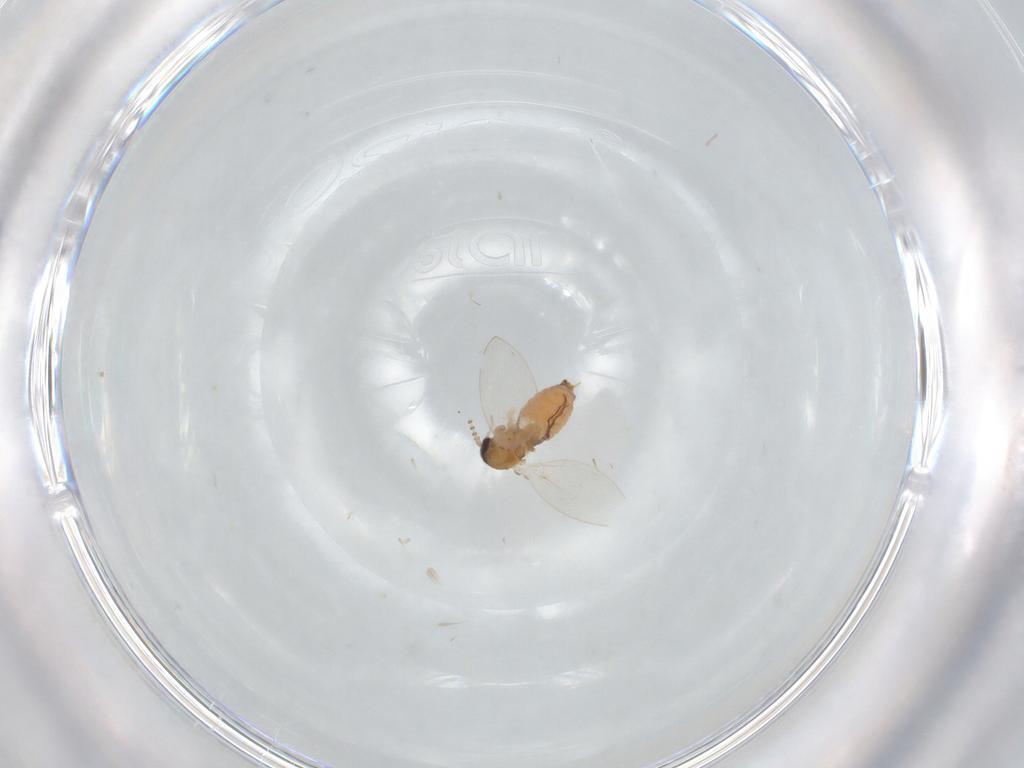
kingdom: Animalia
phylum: Arthropoda
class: Insecta
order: Diptera
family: Psychodidae
